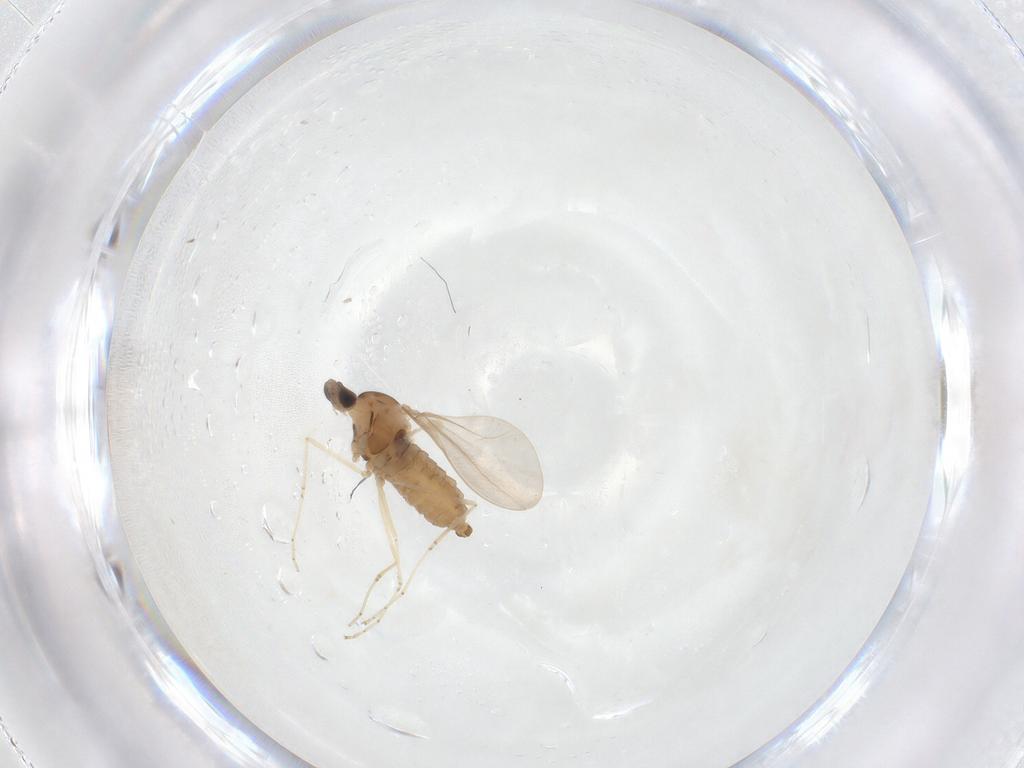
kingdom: Animalia
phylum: Arthropoda
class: Insecta
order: Diptera
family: Cecidomyiidae
